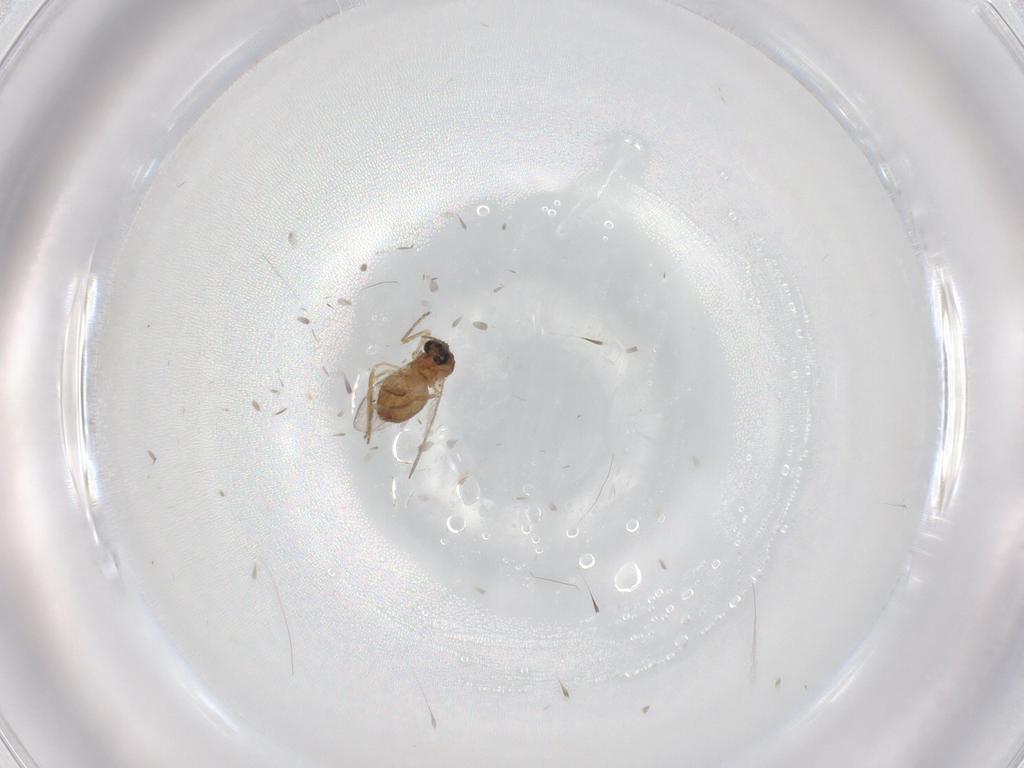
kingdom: Animalia
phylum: Arthropoda
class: Insecta
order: Diptera
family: Ceratopogonidae
